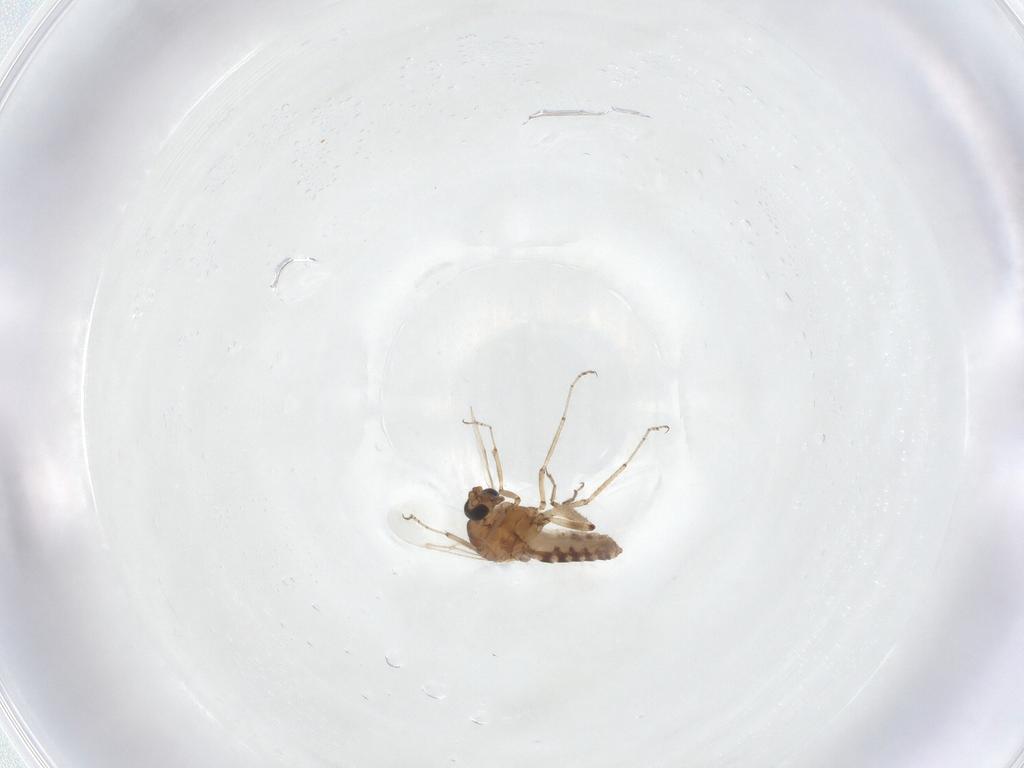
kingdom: Animalia
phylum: Arthropoda
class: Insecta
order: Diptera
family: Ceratopogonidae
